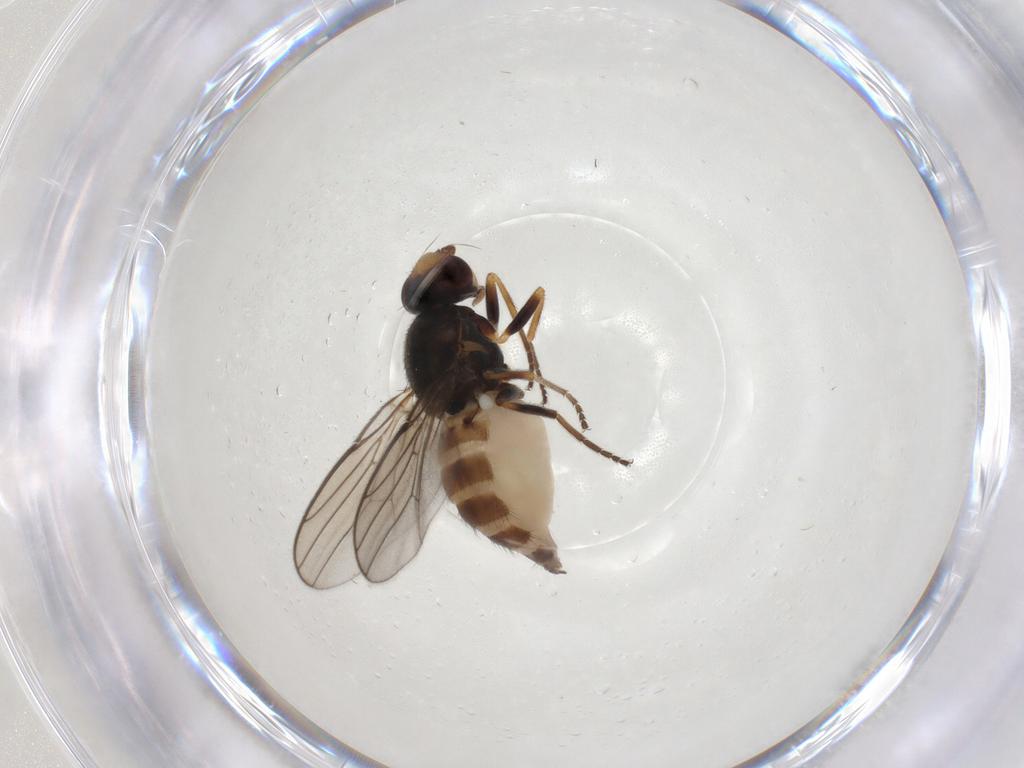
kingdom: Animalia
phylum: Arthropoda
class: Insecta
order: Diptera
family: Chloropidae
